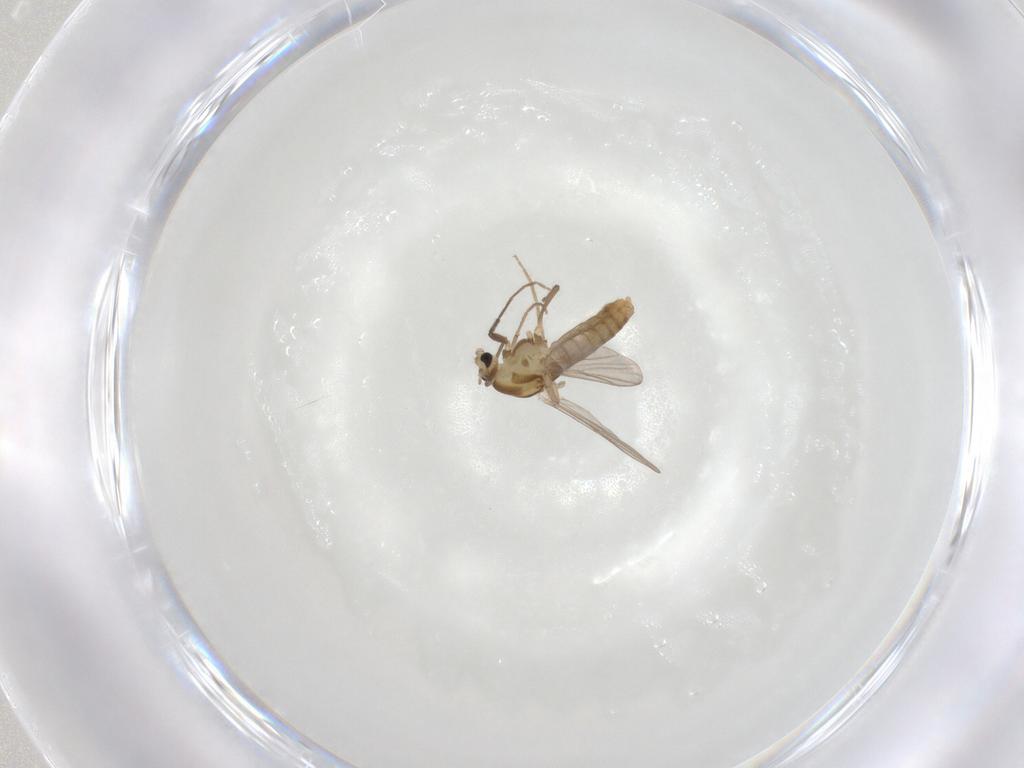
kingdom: Animalia
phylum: Arthropoda
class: Insecta
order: Diptera
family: Chironomidae
